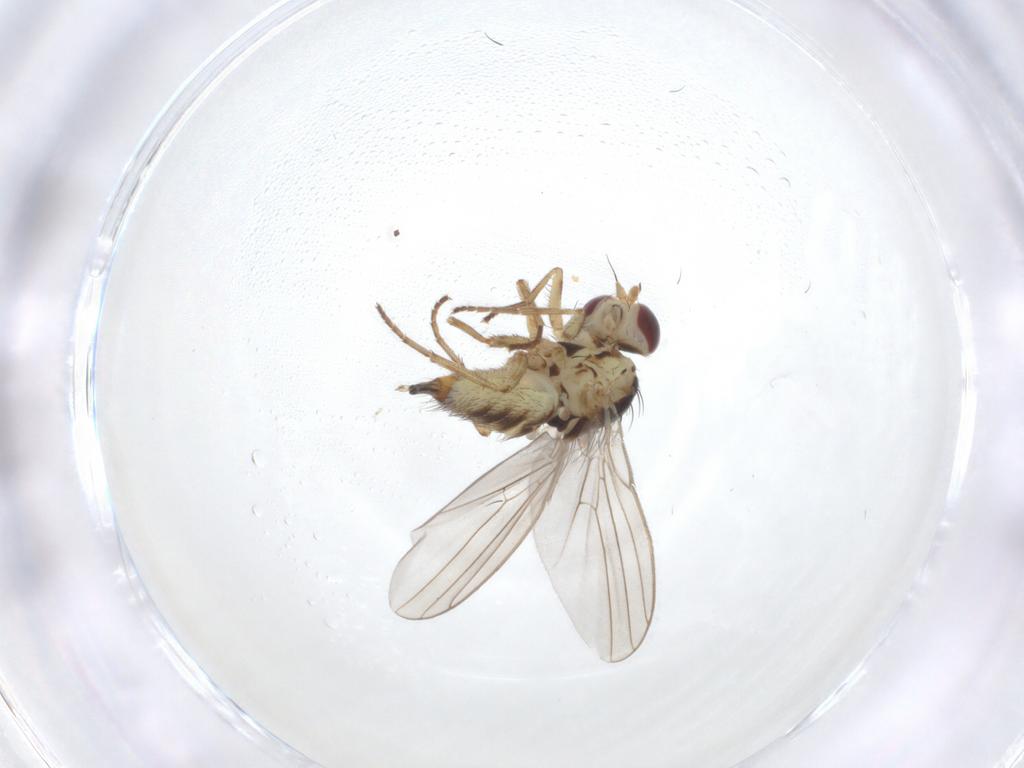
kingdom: Animalia
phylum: Arthropoda
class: Insecta
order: Diptera
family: Agromyzidae
